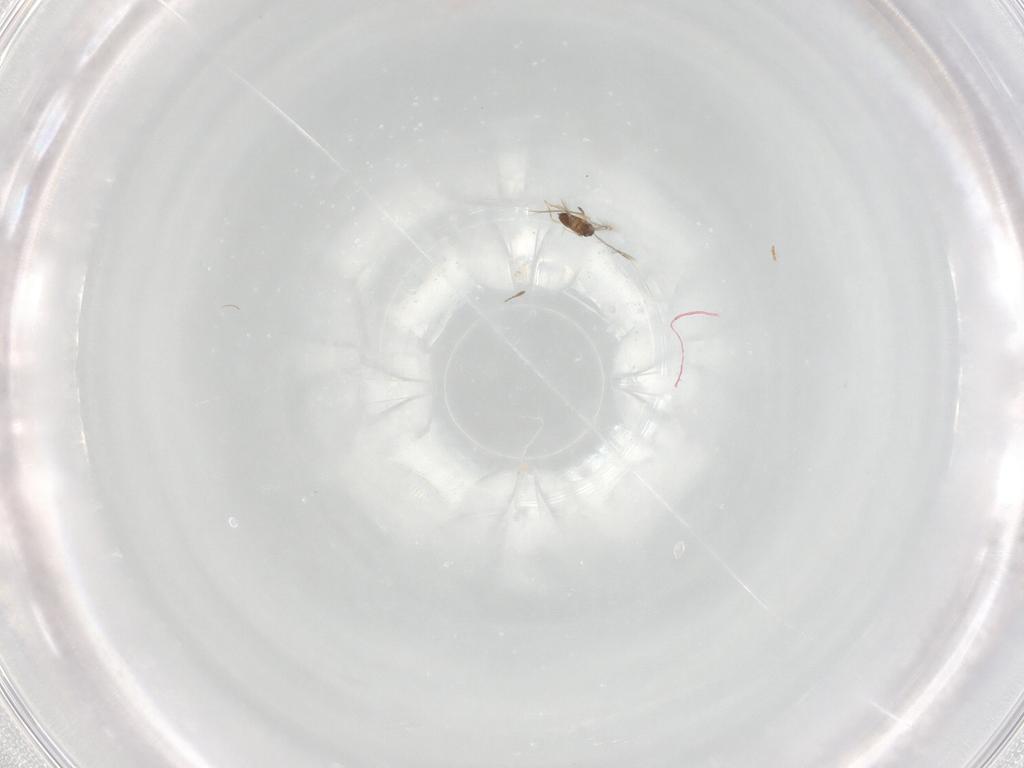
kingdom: Animalia
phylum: Arthropoda
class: Insecta
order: Hymenoptera
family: Mymaridae
